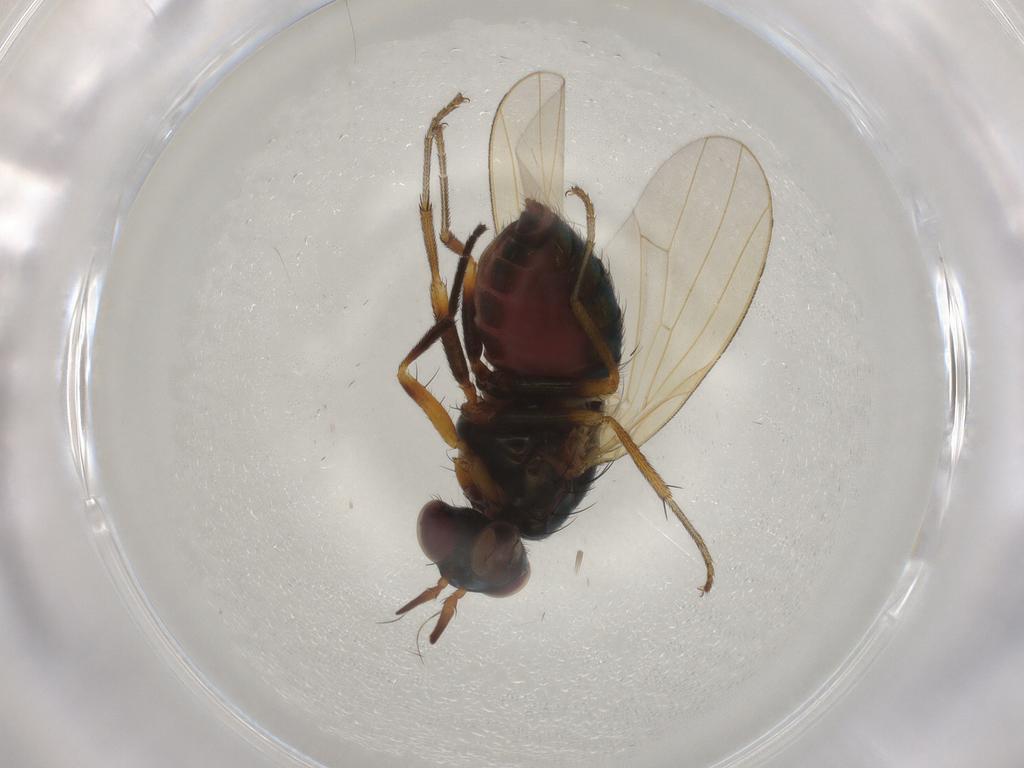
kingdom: Animalia
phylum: Arthropoda
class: Insecta
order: Diptera
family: Lauxaniidae
